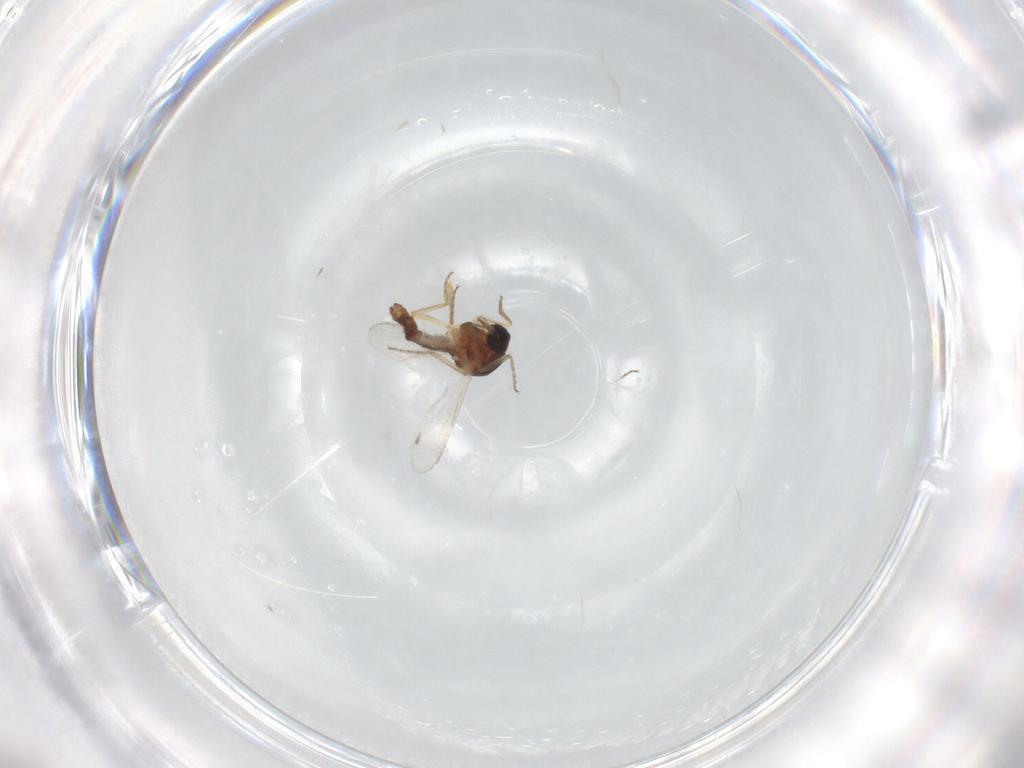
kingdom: Animalia
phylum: Arthropoda
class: Insecta
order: Diptera
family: Ceratopogonidae
